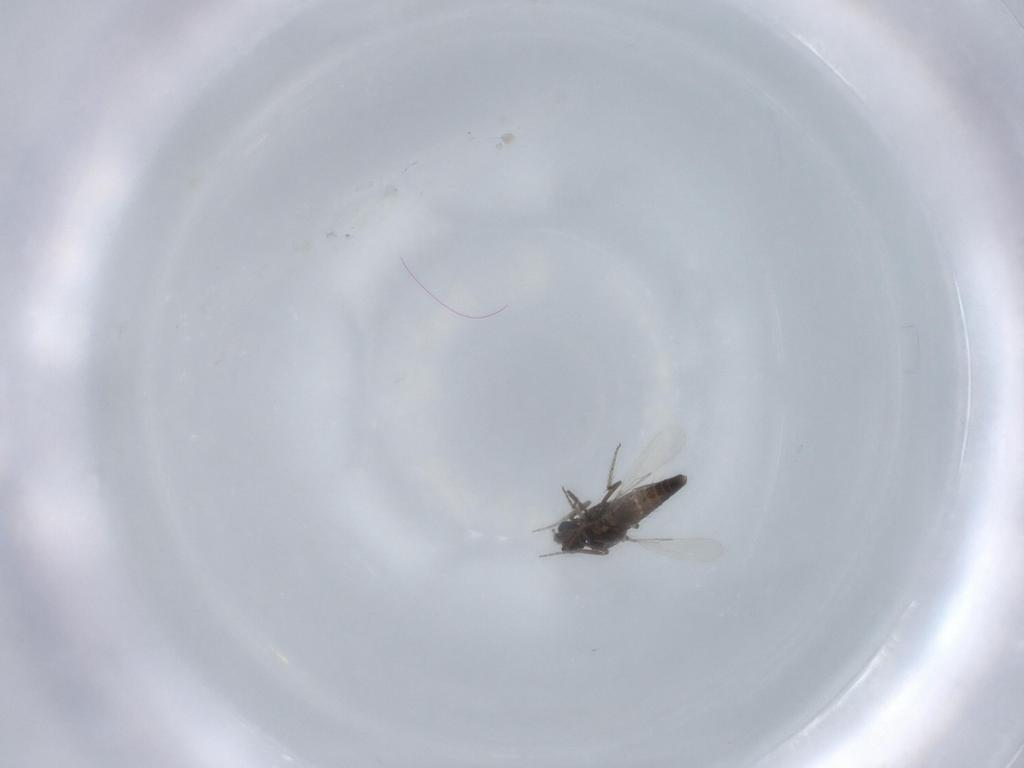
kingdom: Animalia
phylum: Arthropoda
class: Insecta
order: Diptera
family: Ceratopogonidae
